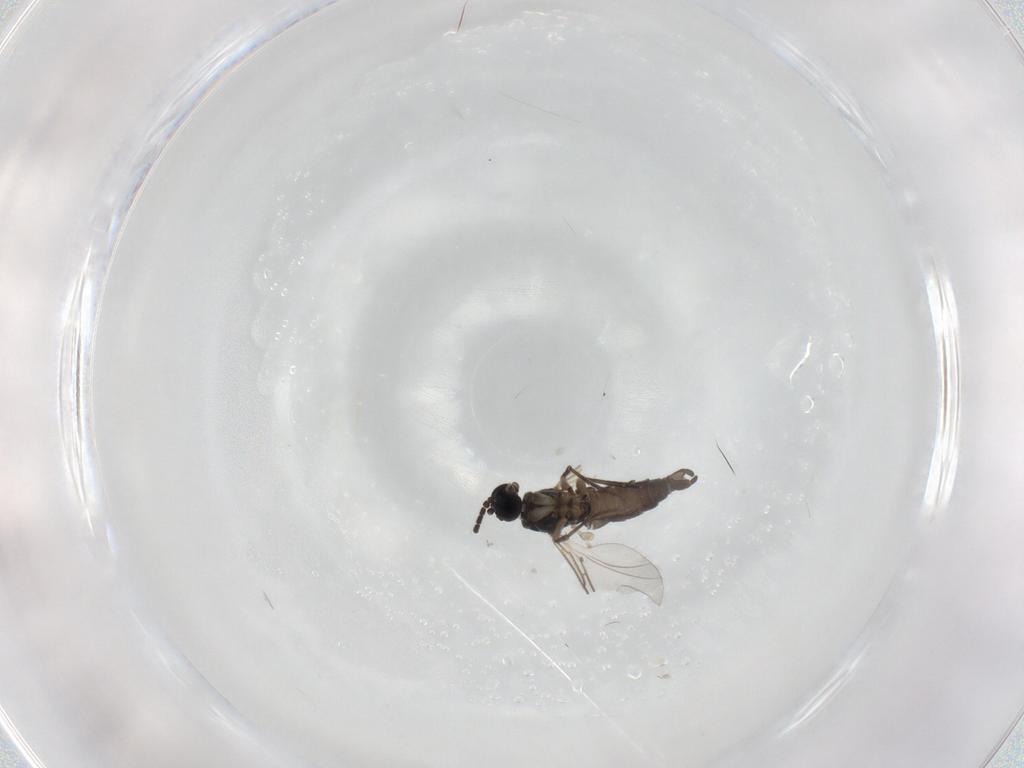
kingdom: Animalia
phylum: Arthropoda
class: Insecta
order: Diptera
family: Sciaridae
